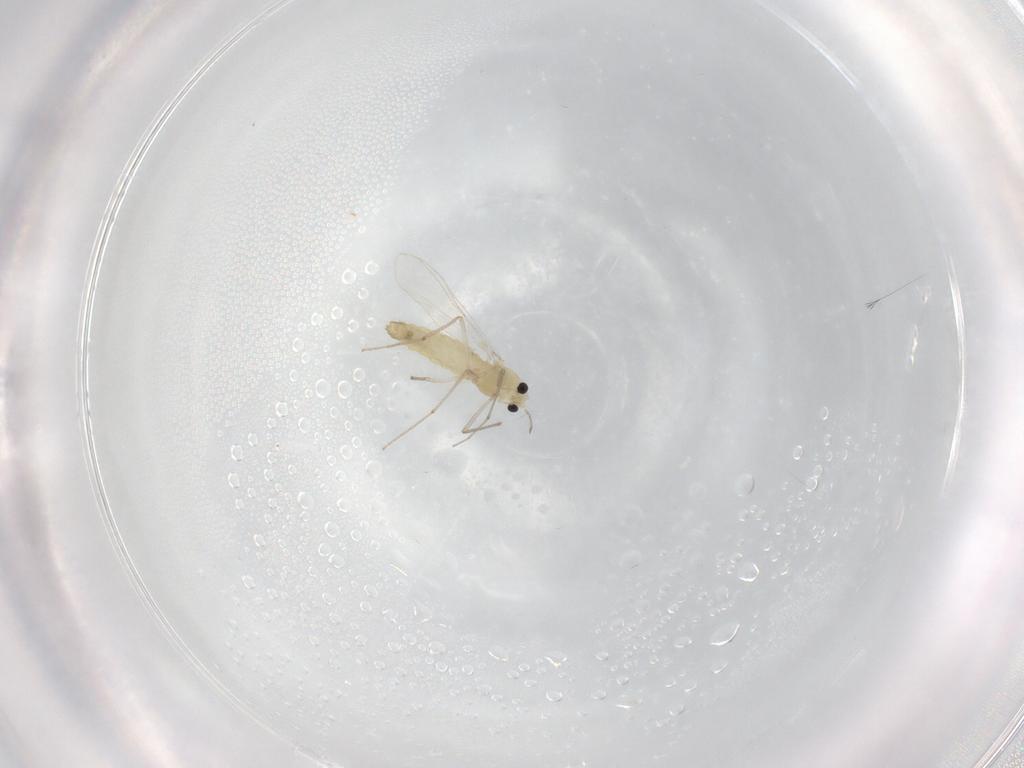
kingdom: Animalia
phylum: Arthropoda
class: Insecta
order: Diptera
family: Chironomidae
